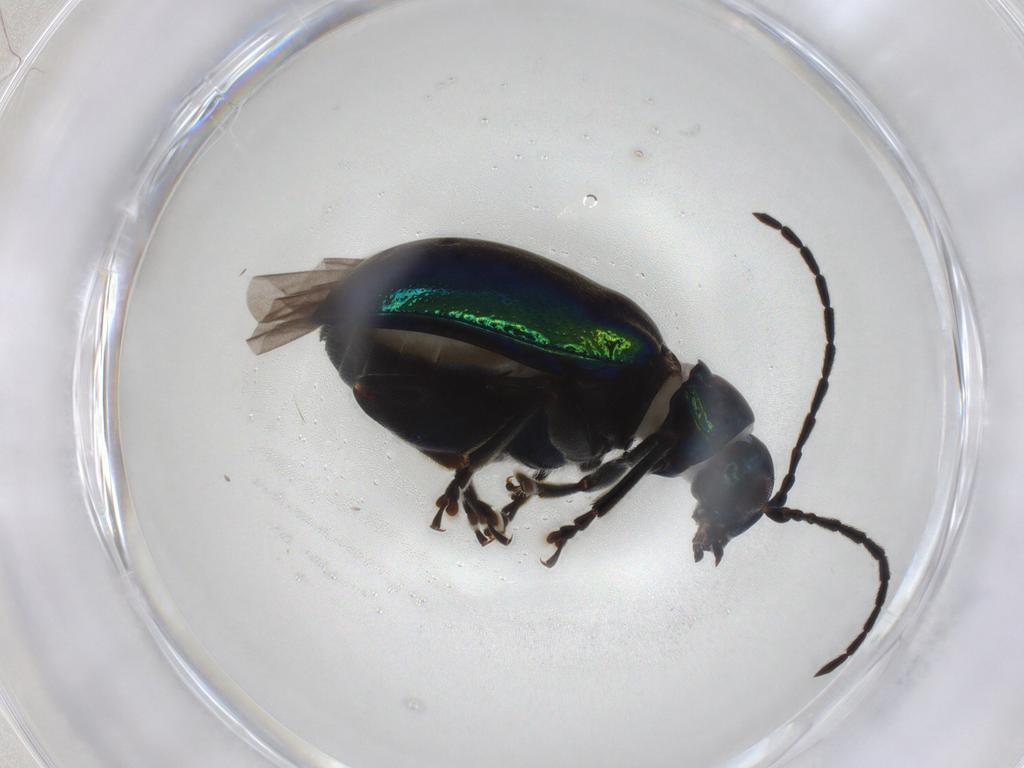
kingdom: Animalia
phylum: Arthropoda
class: Insecta
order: Coleoptera
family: Chrysomelidae
